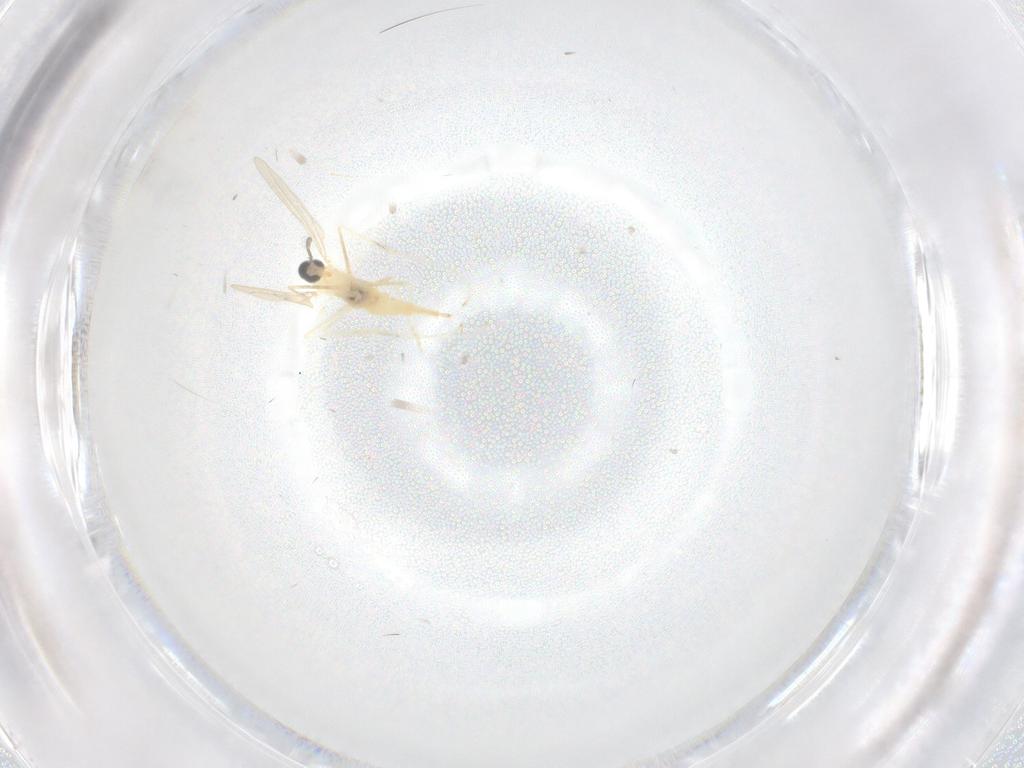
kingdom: Animalia
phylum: Arthropoda
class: Insecta
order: Diptera
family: Cecidomyiidae
